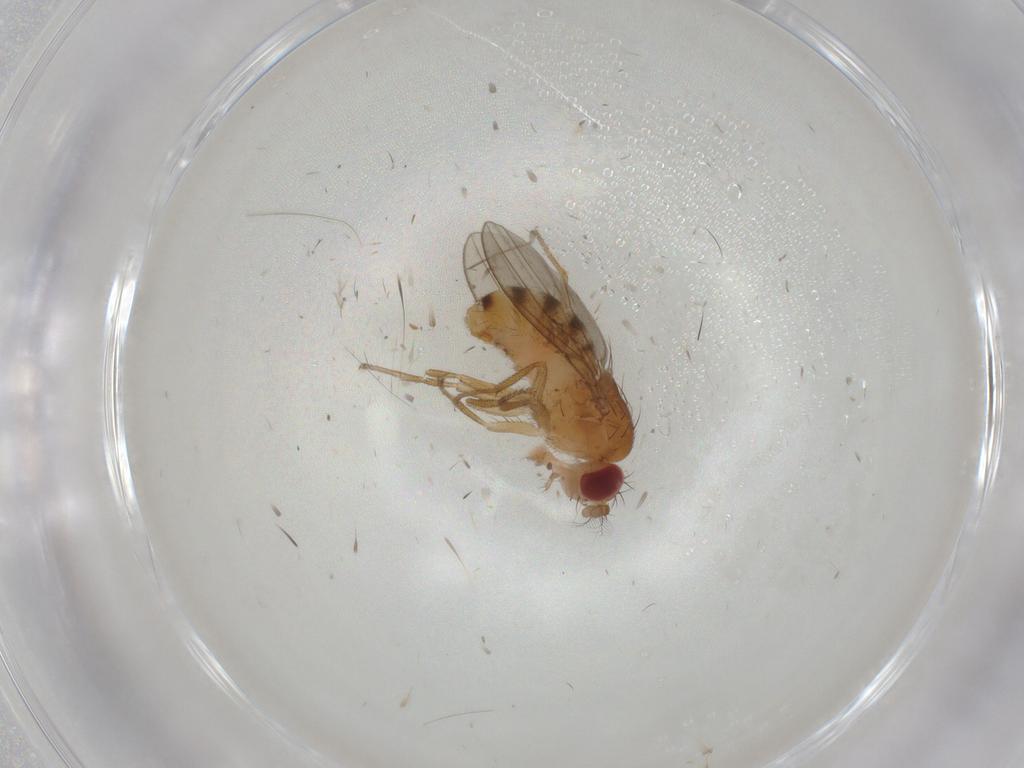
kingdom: Animalia
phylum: Arthropoda
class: Insecta
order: Diptera
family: Drosophilidae
